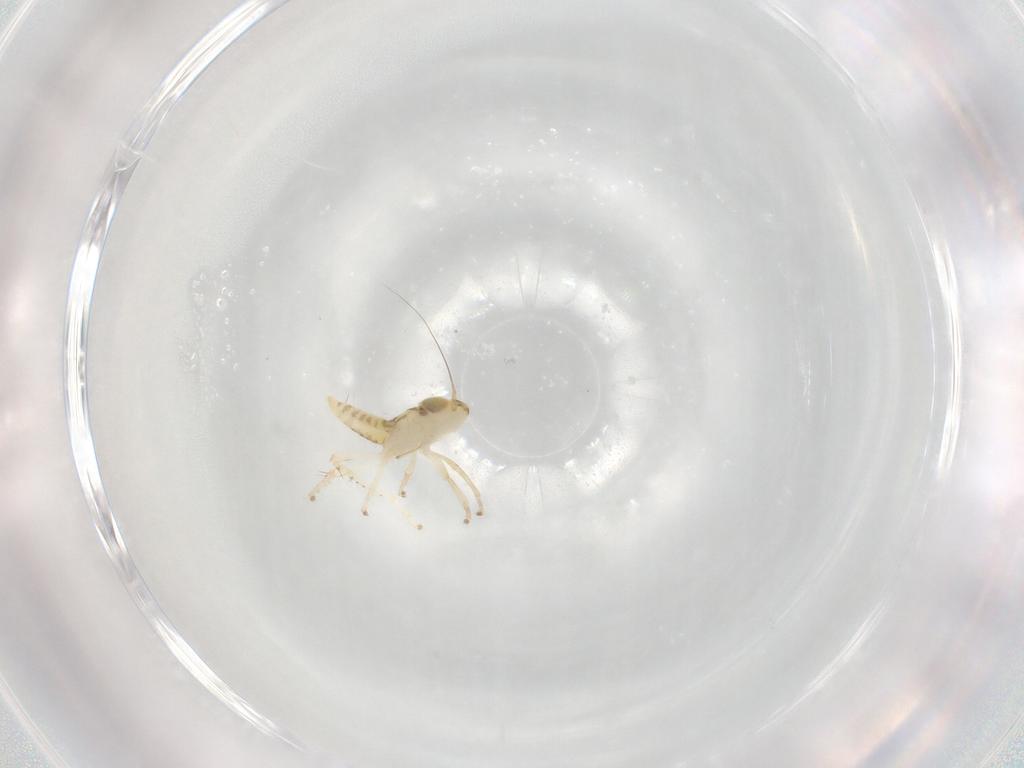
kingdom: Animalia
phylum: Arthropoda
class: Insecta
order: Hemiptera
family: Cicadellidae
